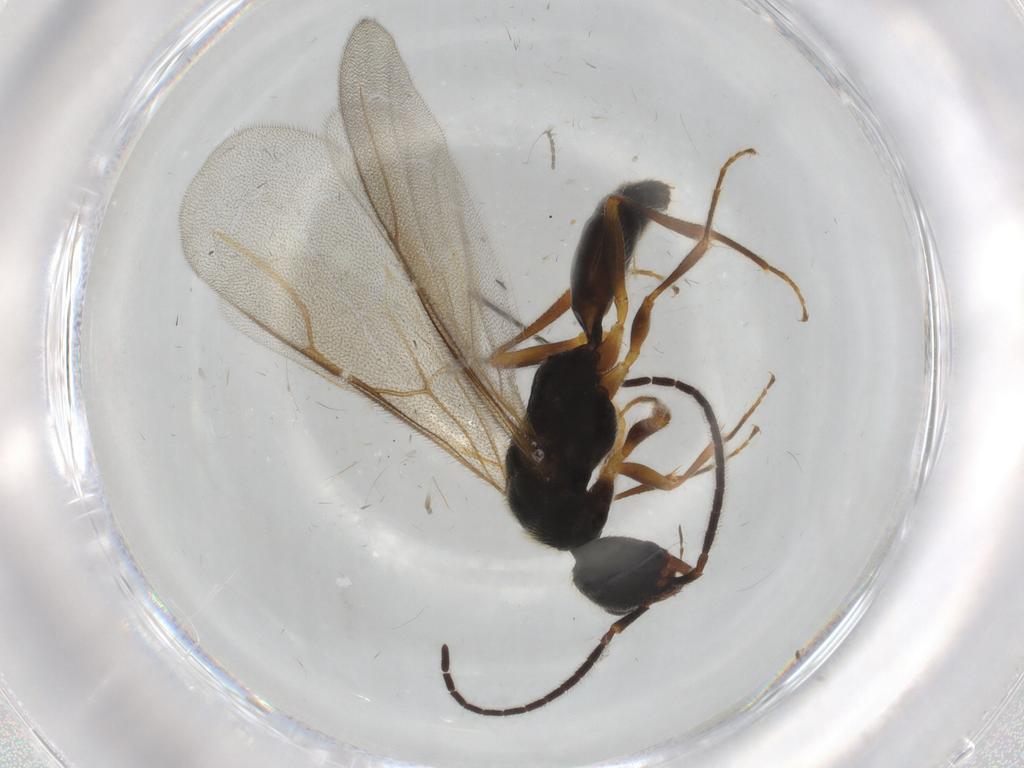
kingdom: Animalia
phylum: Arthropoda
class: Insecta
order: Hymenoptera
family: Bethylidae
